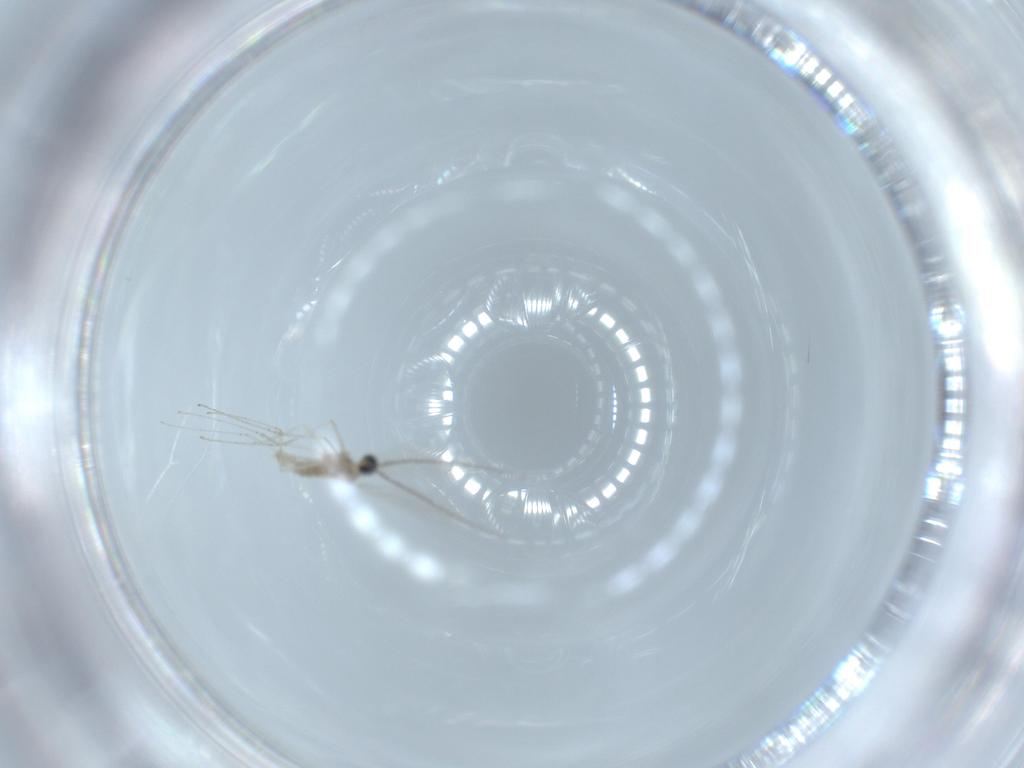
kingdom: Animalia
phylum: Arthropoda
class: Insecta
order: Diptera
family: Cecidomyiidae
